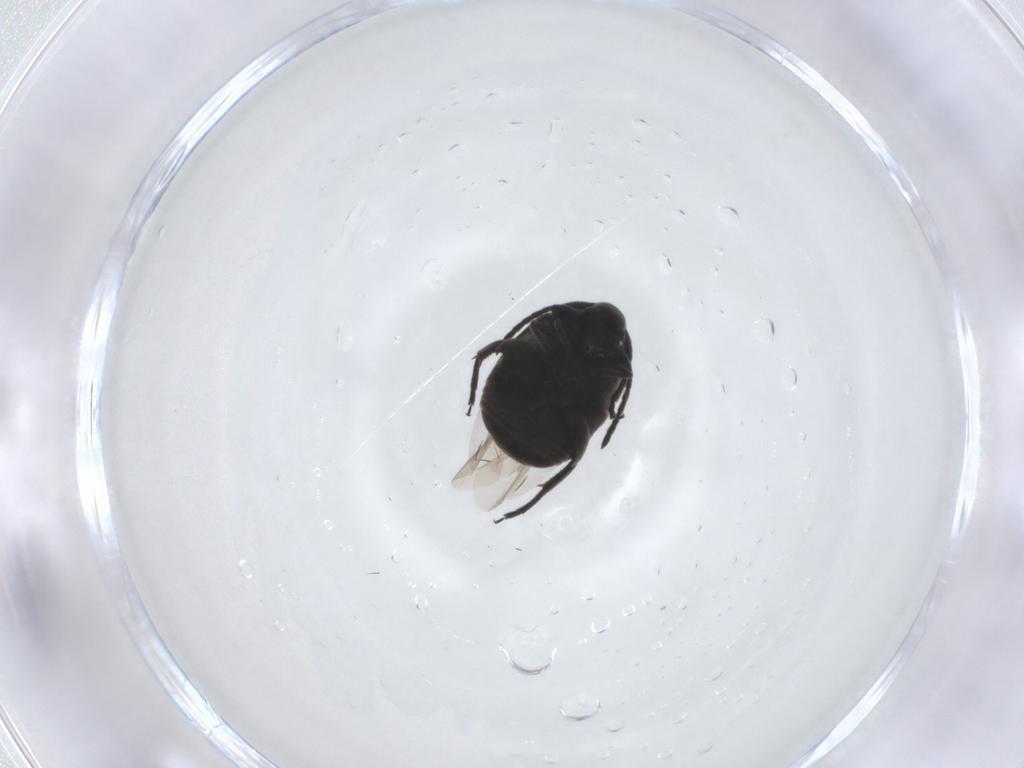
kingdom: Animalia
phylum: Arthropoda
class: Insecta
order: Coleoptera
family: Chrysomelidae
